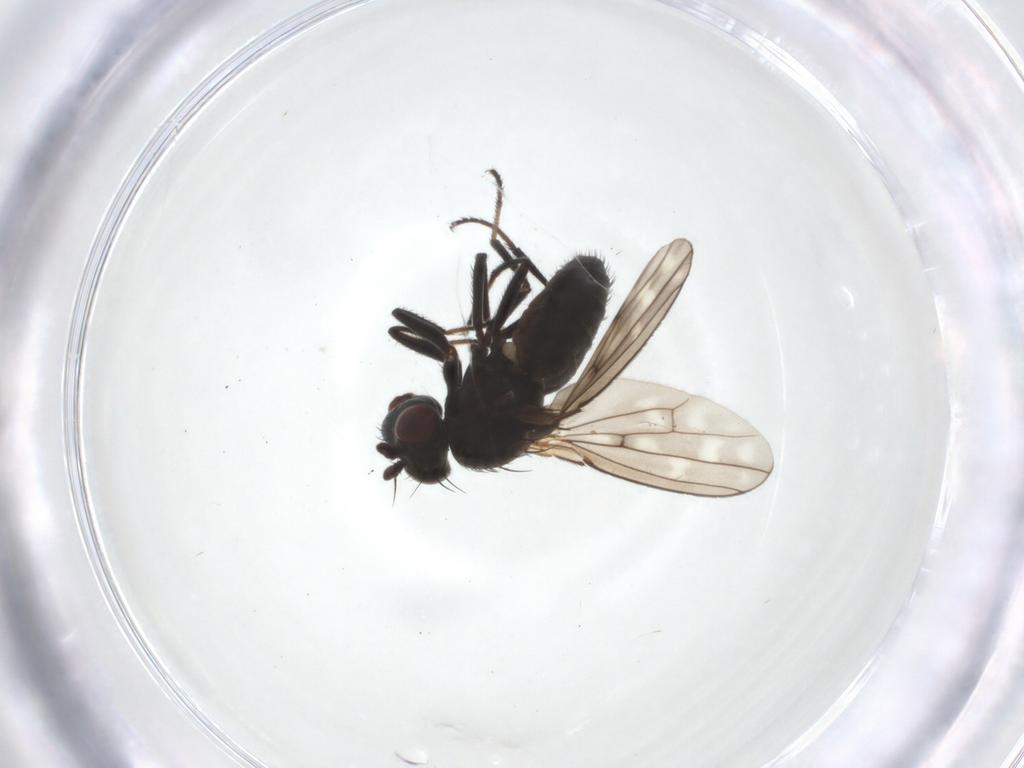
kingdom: Animalia
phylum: Arthropoda
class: Insecta
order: Diptera
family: Ephydridae
